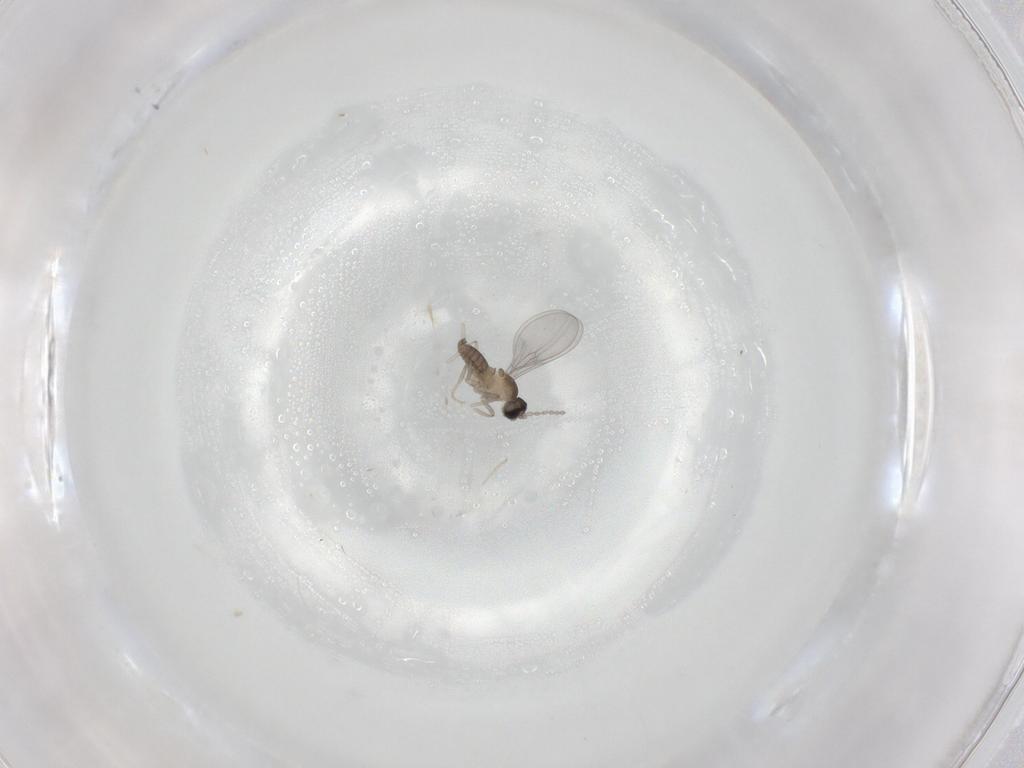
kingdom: Animalia
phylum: Arthropoda
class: Insecta
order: Diptera
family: Cecidomyiidae
